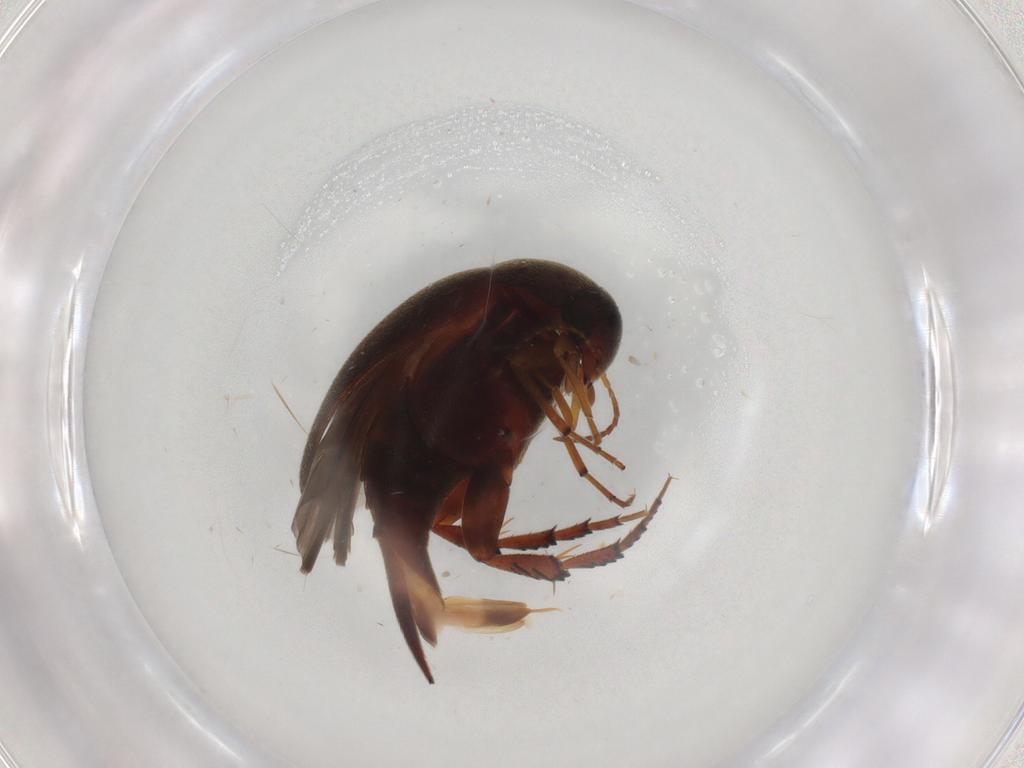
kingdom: Animalia
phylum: Arthropoda
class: Insecta
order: Coleoptera
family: Mordellidae
